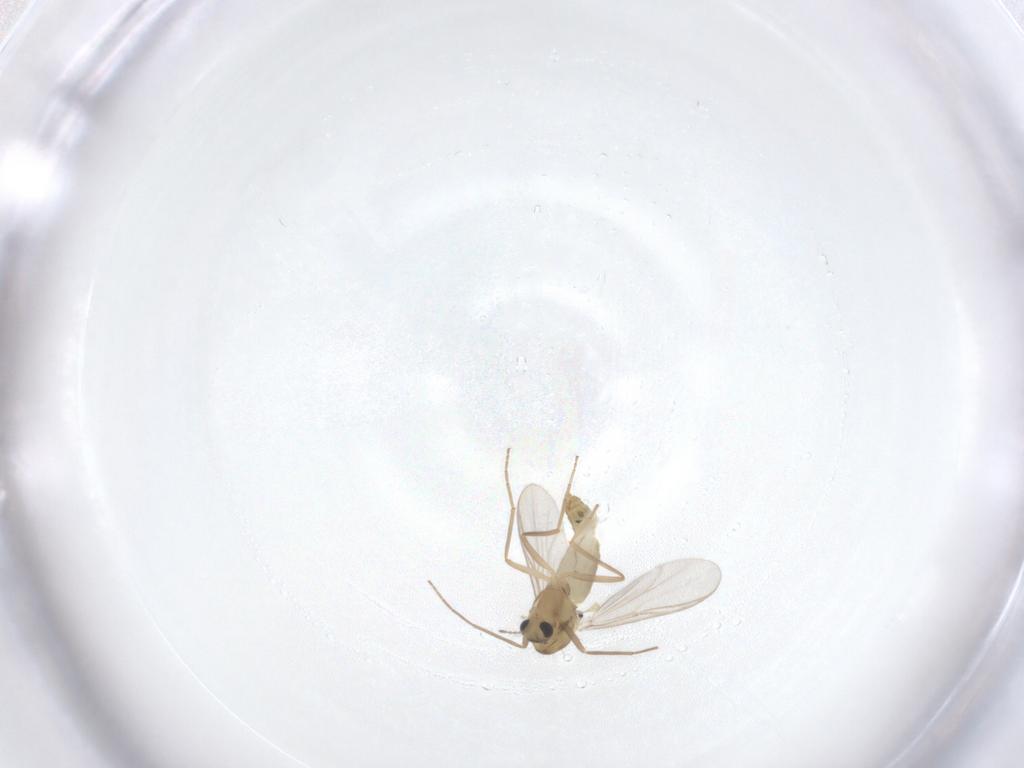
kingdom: Animalia
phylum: Arthropoda
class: Insecta
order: Diptera
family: Chironomidae
